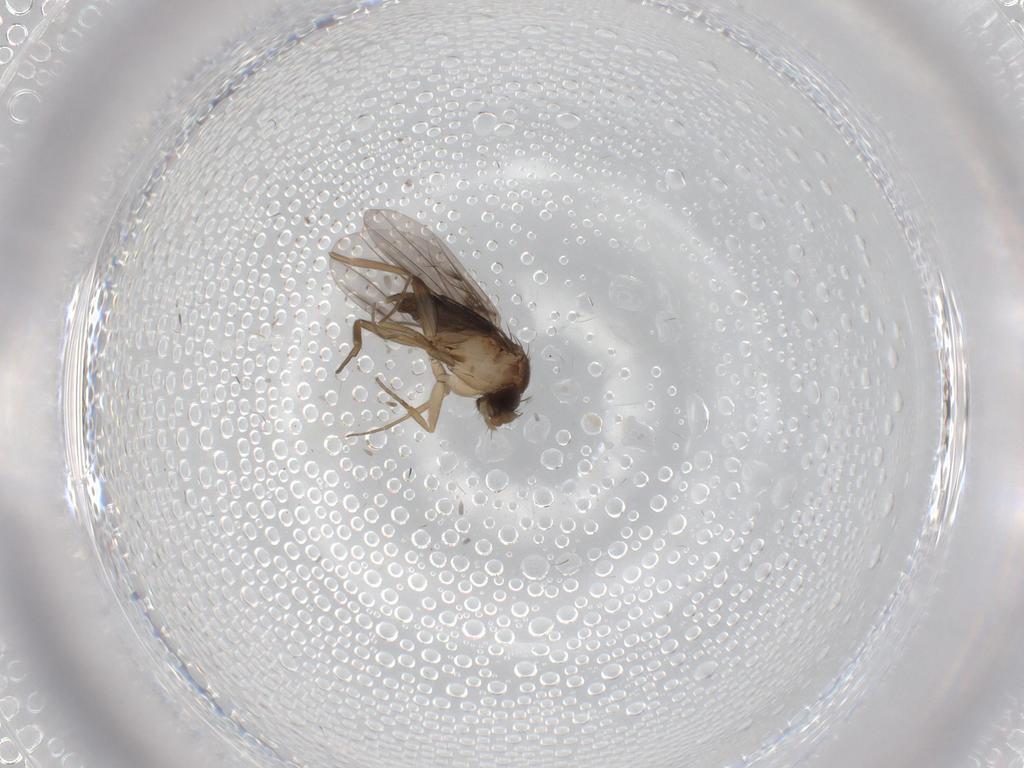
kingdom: Animalia
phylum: Arthropoda
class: Insecta
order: Diptera
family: Phoridae
